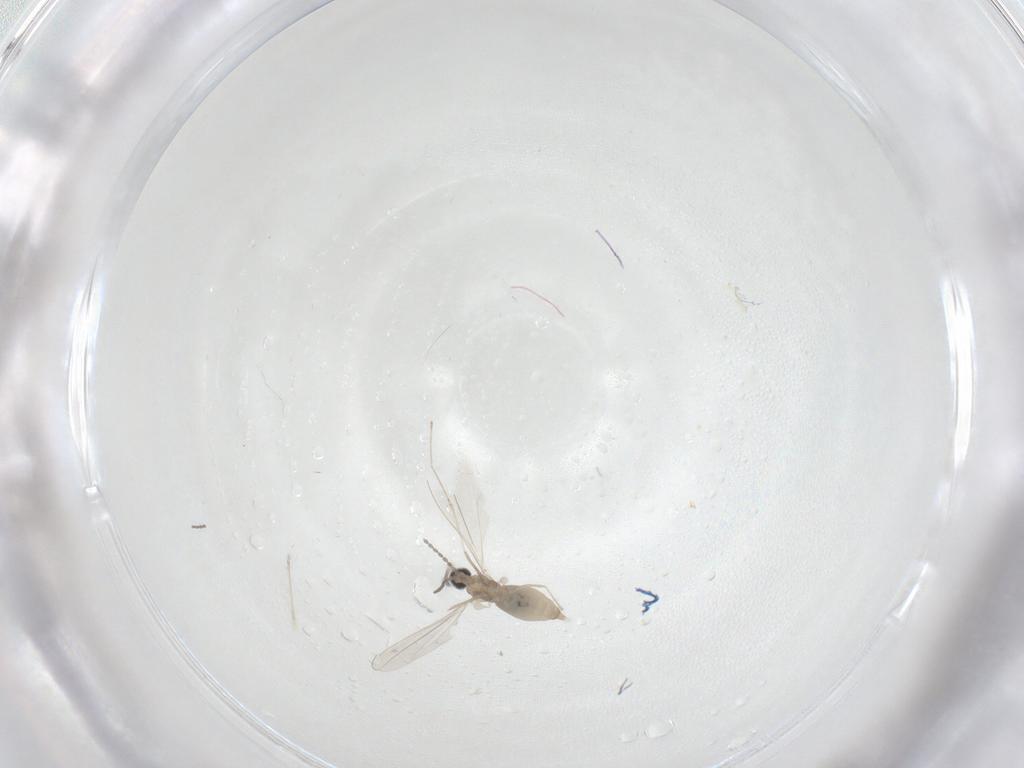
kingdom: Animalia
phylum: Arthropoda
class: Insecta
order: Diptera
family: Cecidomyiidae
